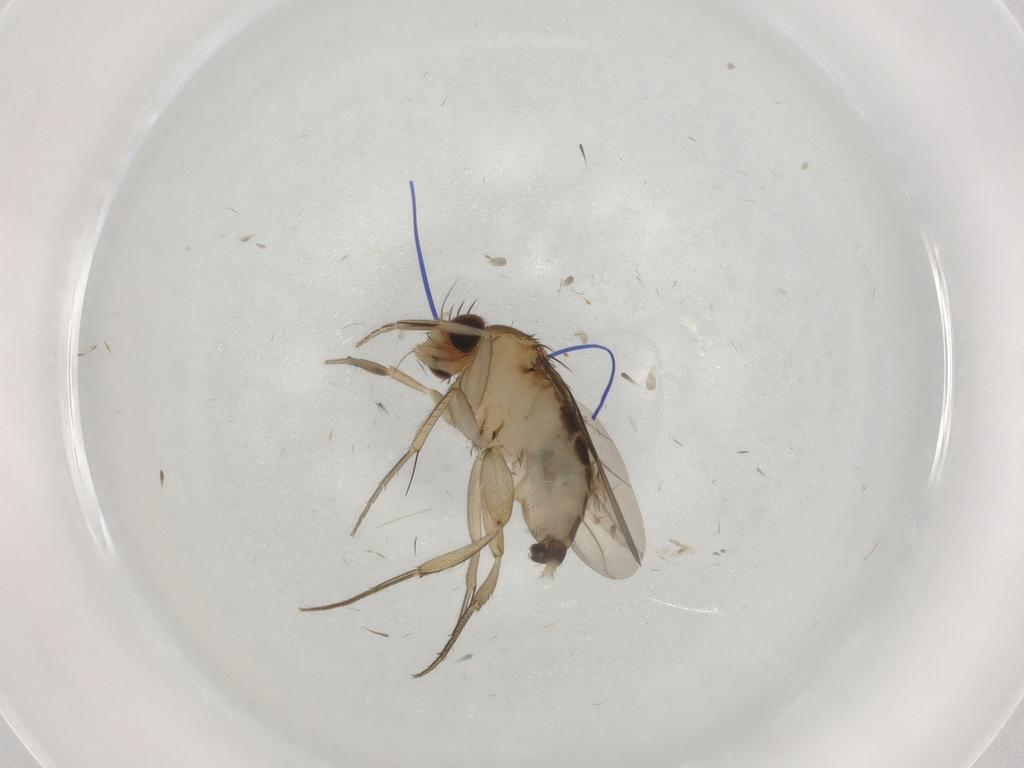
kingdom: Animalia
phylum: Arthropoda
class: Insecta
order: Diptera
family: Phoridae
